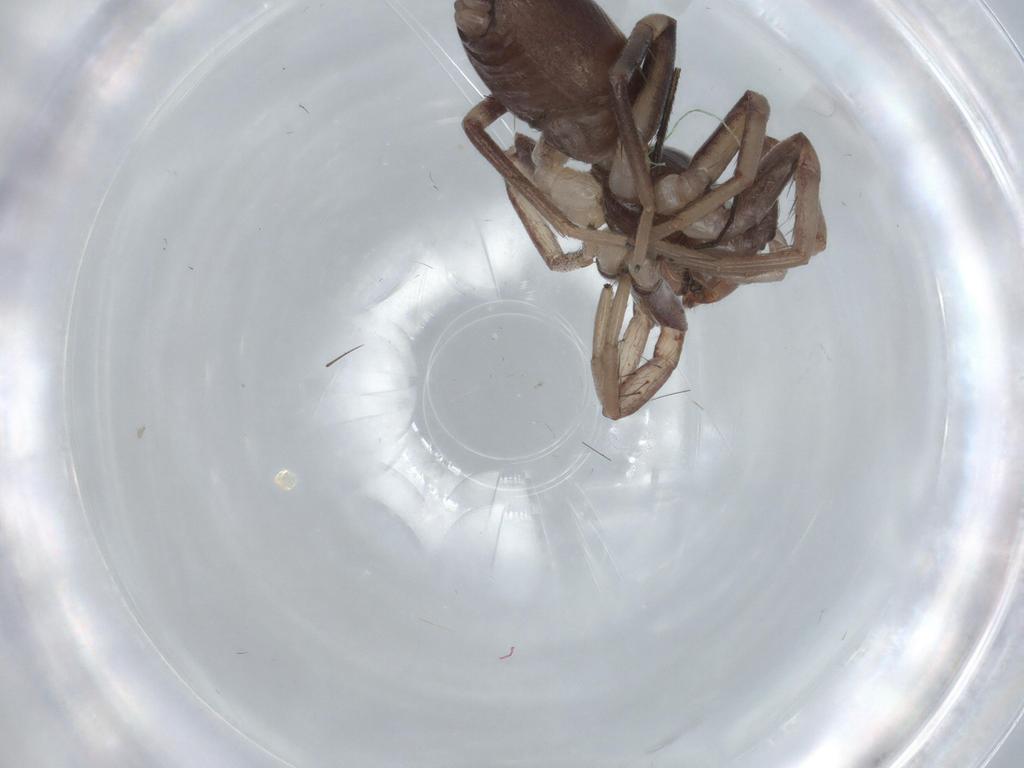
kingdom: Animalia
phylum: Arthropoda
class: Arachnida
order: Araneae
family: Corinnidae
